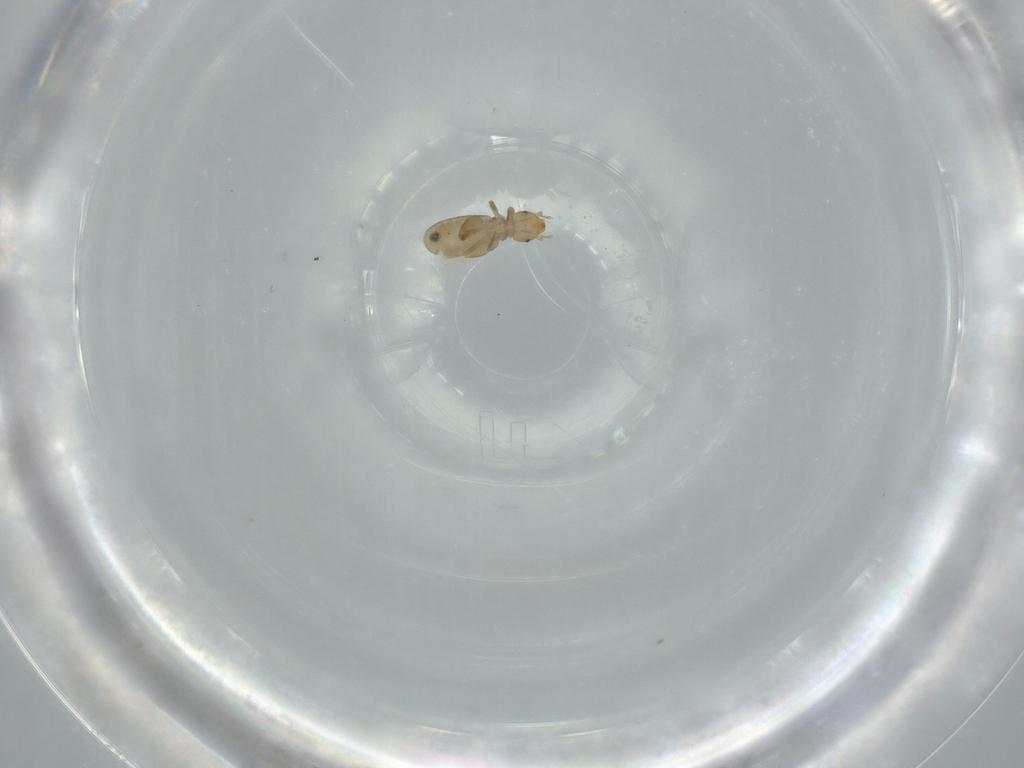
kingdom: Animalia
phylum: Arthropoda
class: Insecta
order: Psocodea
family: Liposcelididae
